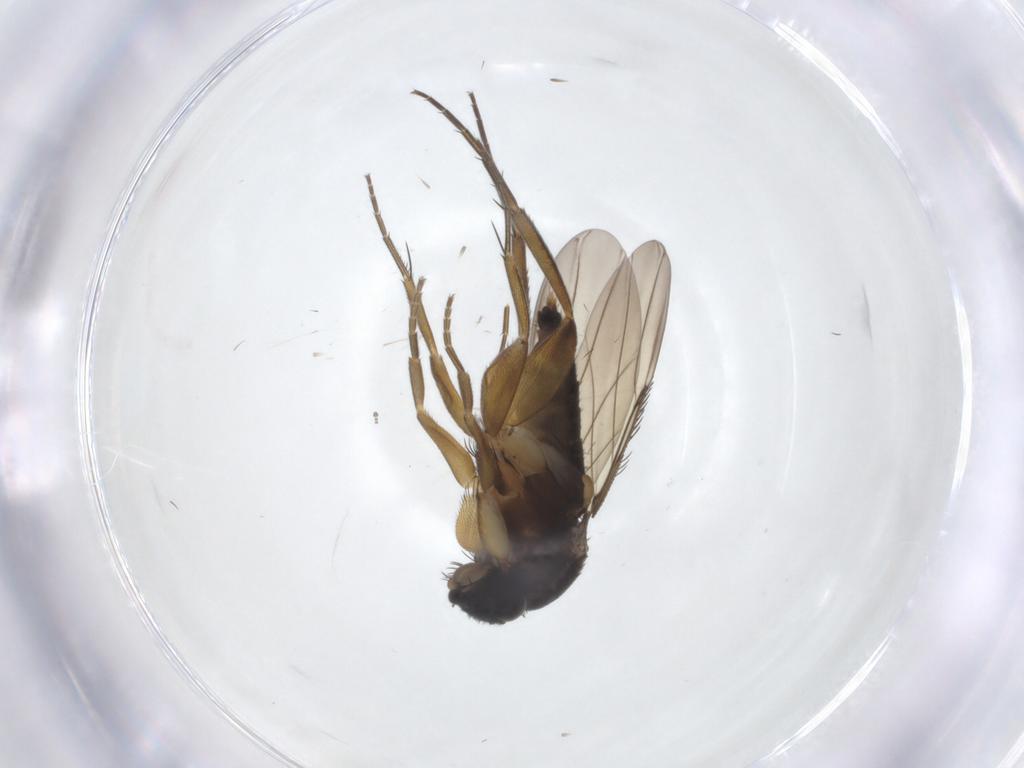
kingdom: Animalia
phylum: Arthropoda
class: Insecta
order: Diptera
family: Phoridae
